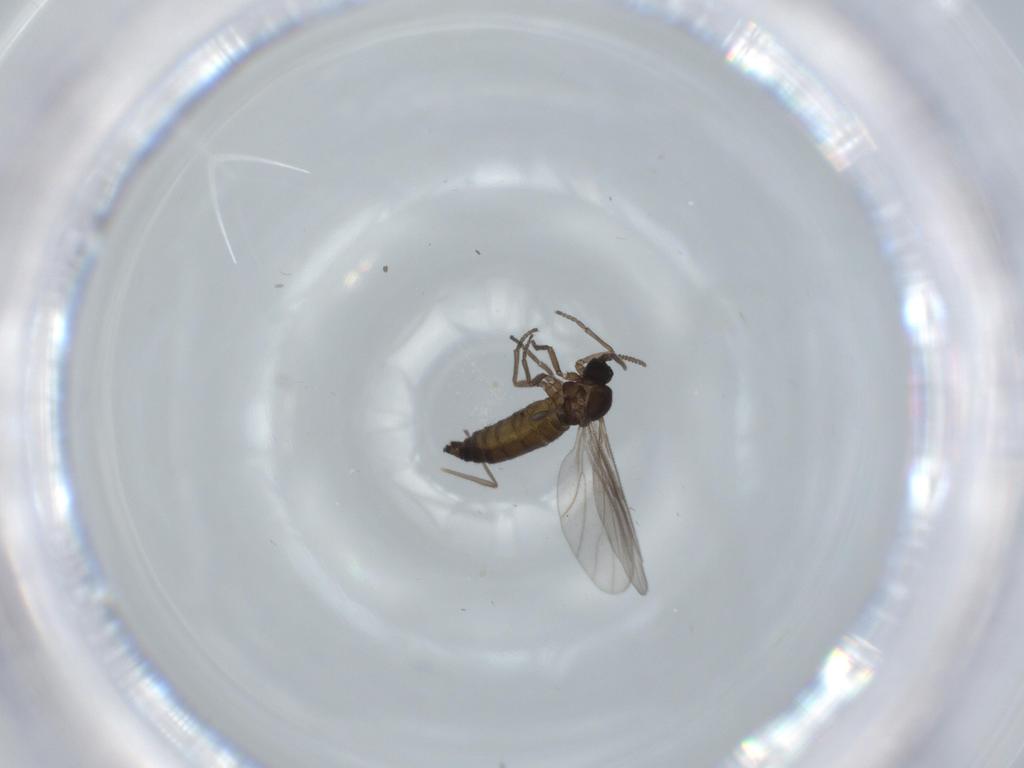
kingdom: Animalia
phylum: Arthropoda
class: Insecta
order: Diptera
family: Sciaridae
